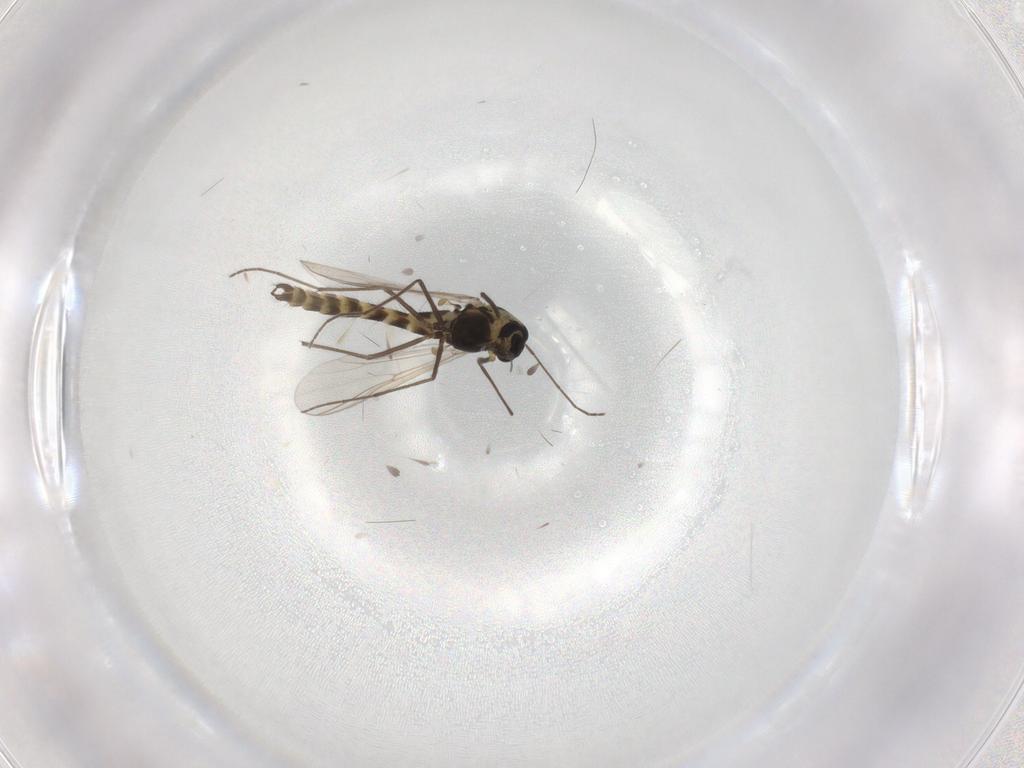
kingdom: Animalia
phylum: Arthropoda
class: Insecta
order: Diptera
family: Chironomidae
